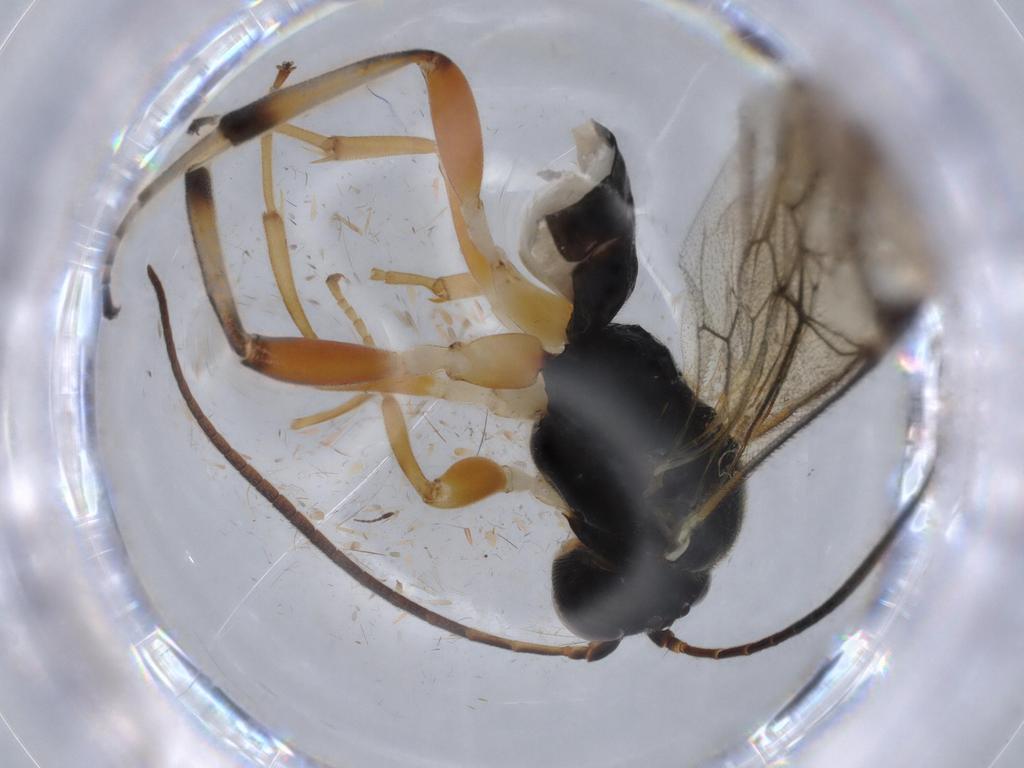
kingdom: Animalia
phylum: Arthropoda
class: Insecta
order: Hymenoptera
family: Ichneumonidae
